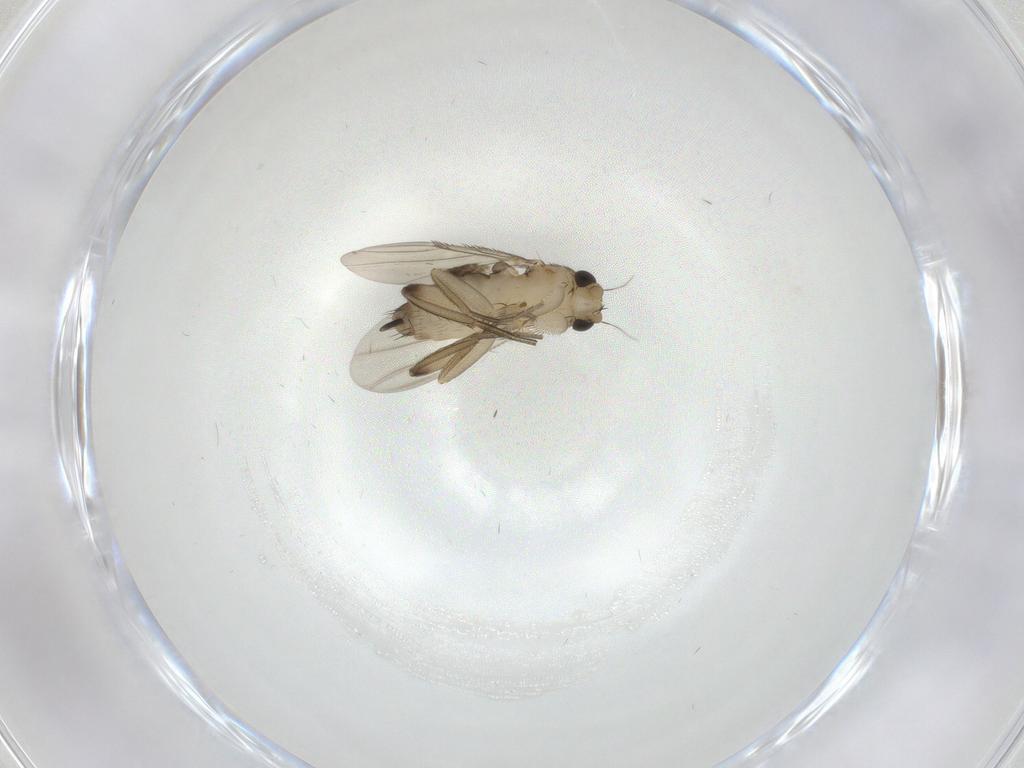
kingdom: Animalia
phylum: Arthropoda
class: Insecta
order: Diptera
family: Phoridae
